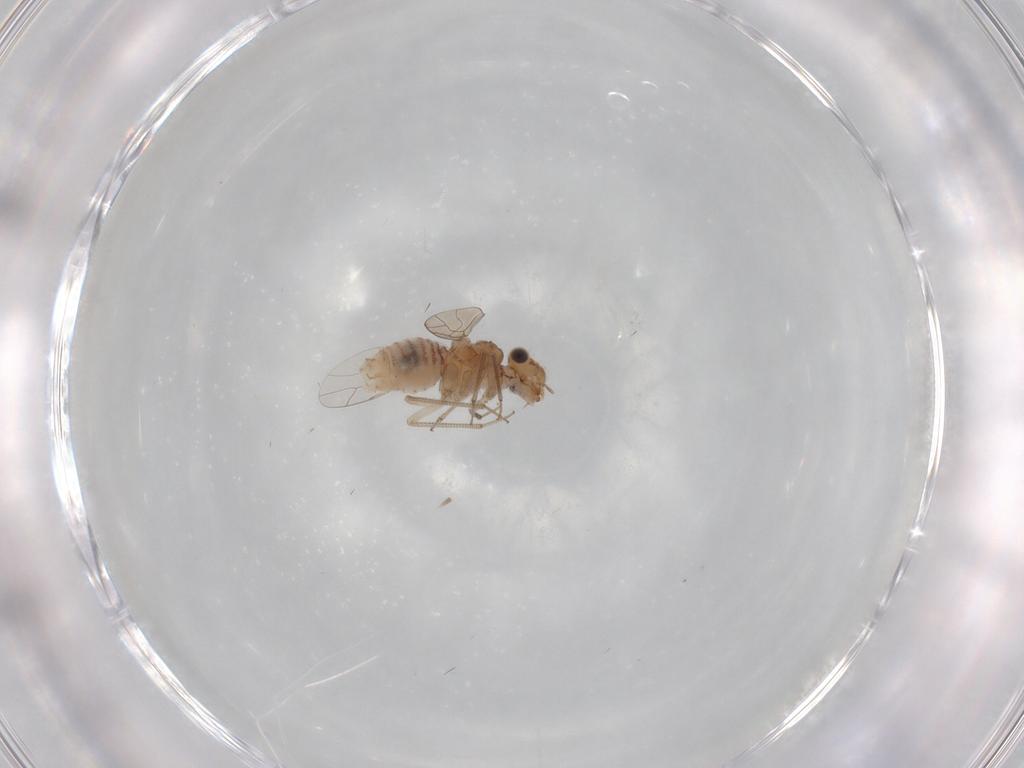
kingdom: Animalia
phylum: Arthropoda
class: Insecta
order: Psocodea
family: Lachesillidae
